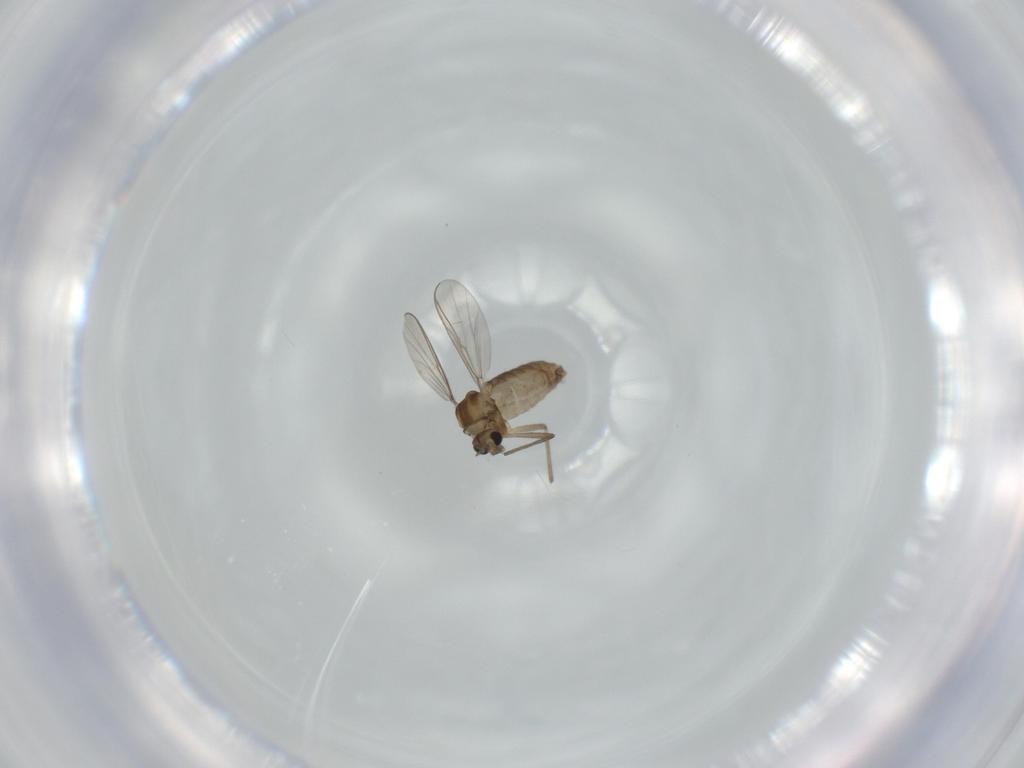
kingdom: Animalia
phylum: Arthropoda
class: Insecta
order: Diptera
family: Chironomidae
